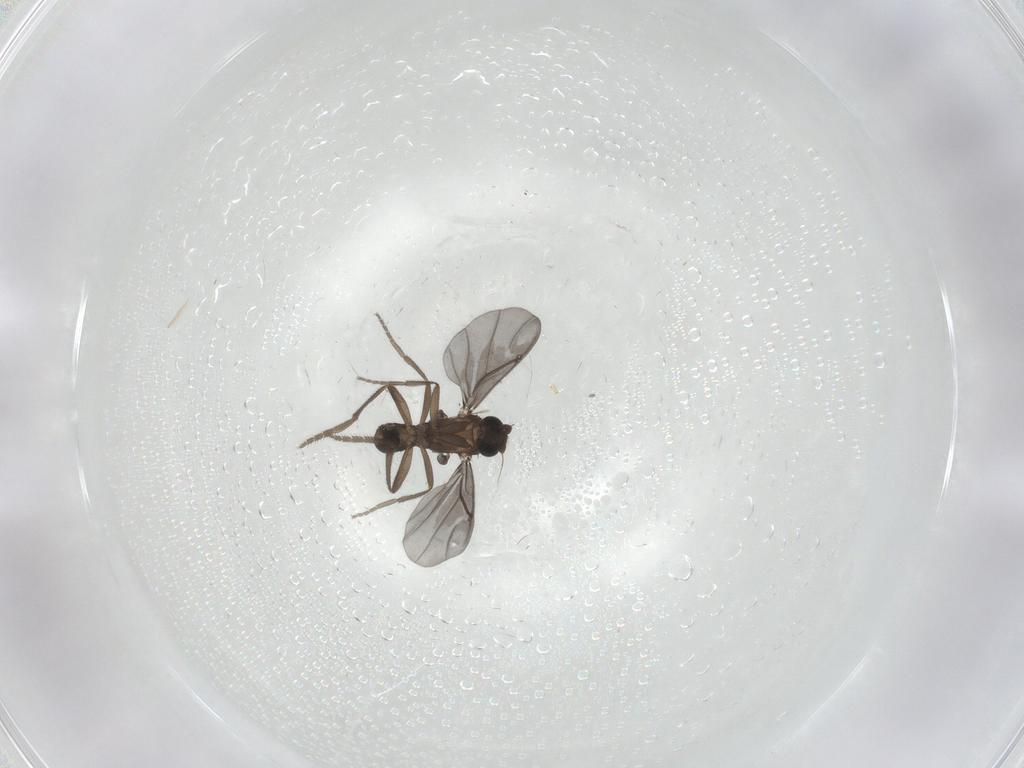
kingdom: Animalia
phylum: Arthropoda
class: Insecta
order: Diptera
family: Phoridae
